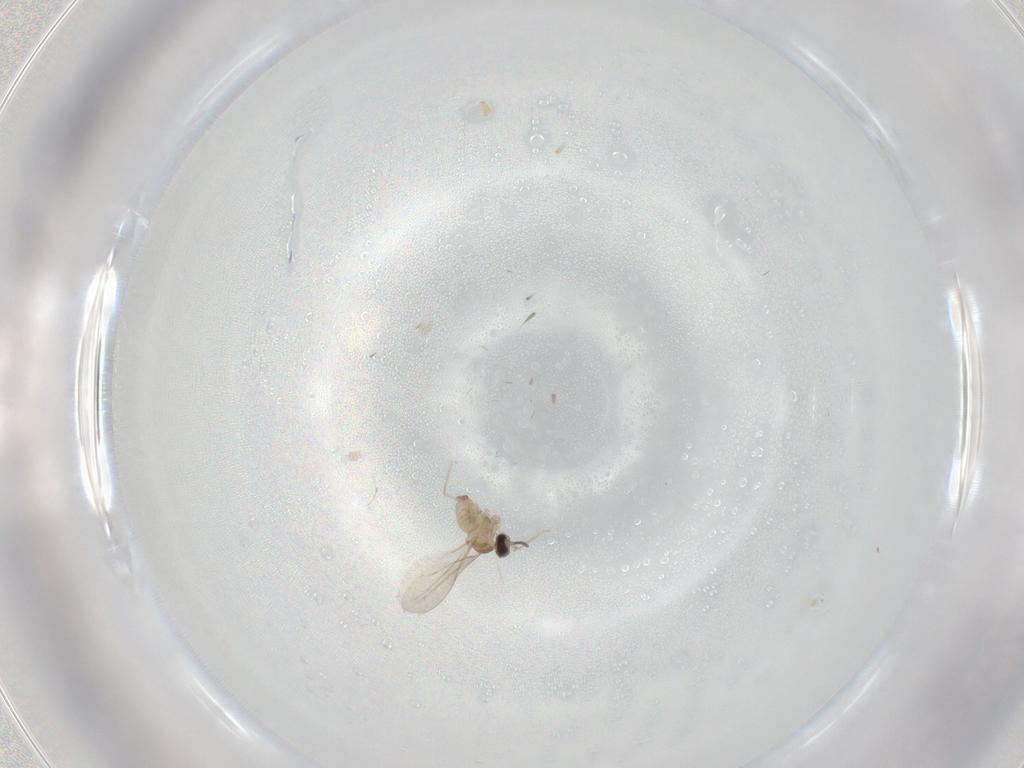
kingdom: Animalia
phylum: Arthropoda
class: Insecta
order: Diptera
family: Cecidomyiidae
